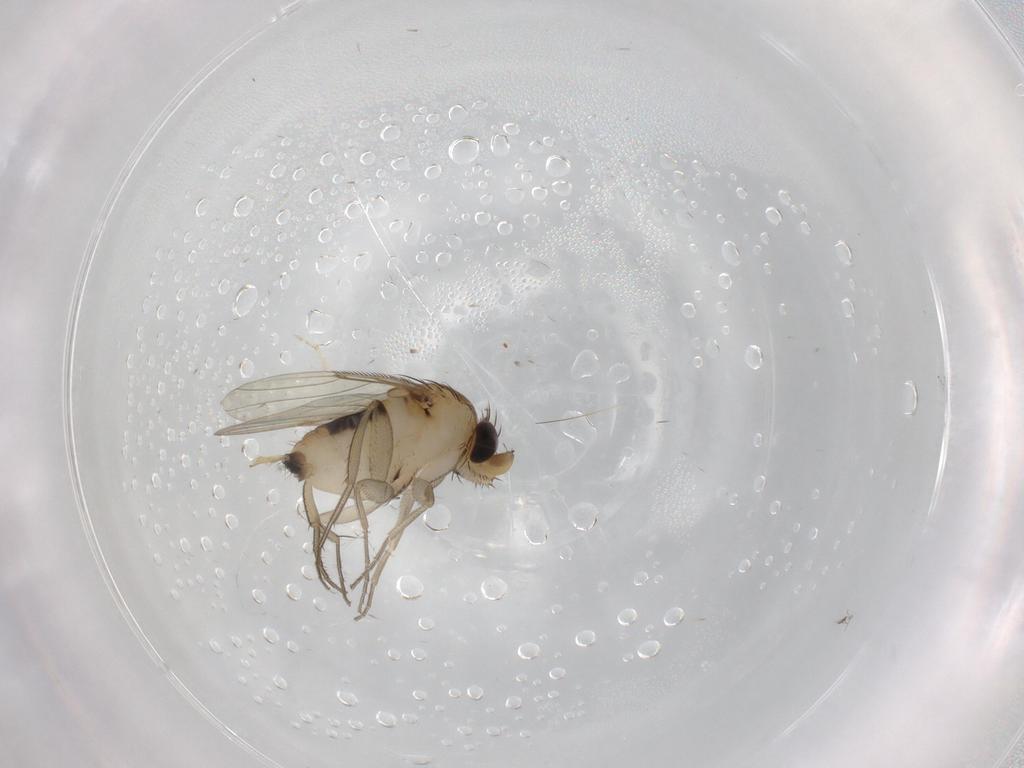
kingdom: Animalia
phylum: Arthropoda
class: Insecta
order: Diptera
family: Phoridae
